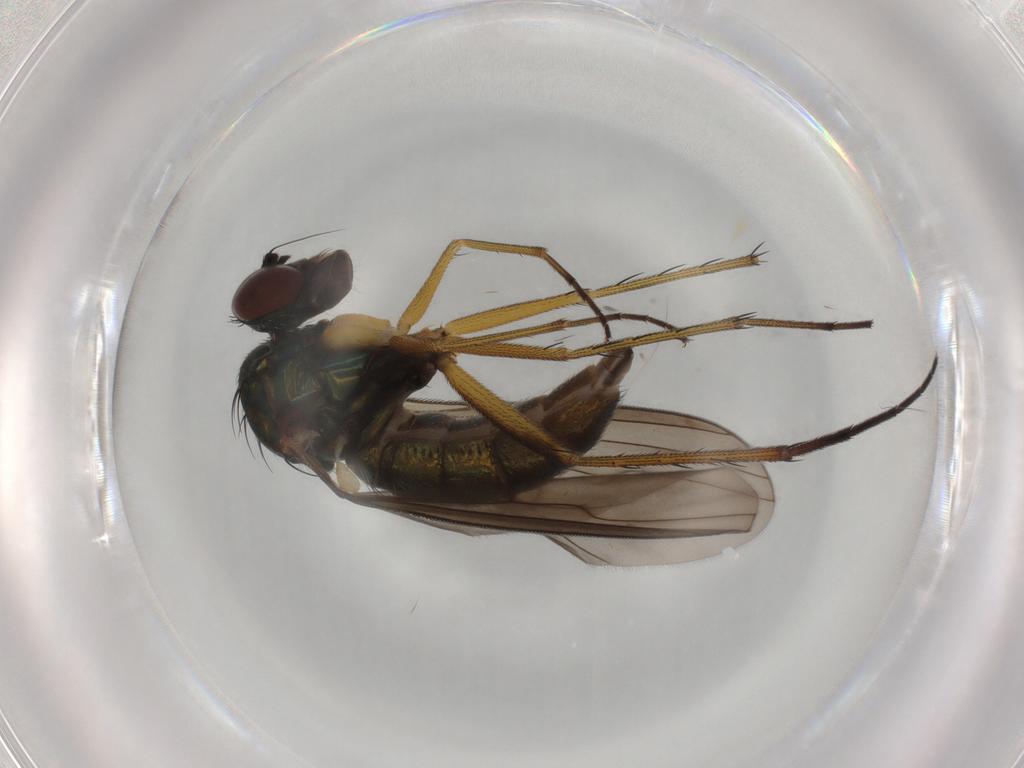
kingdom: Animalia
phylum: Arthropoda
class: Insecta
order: Diptera
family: Dolichopodidae
